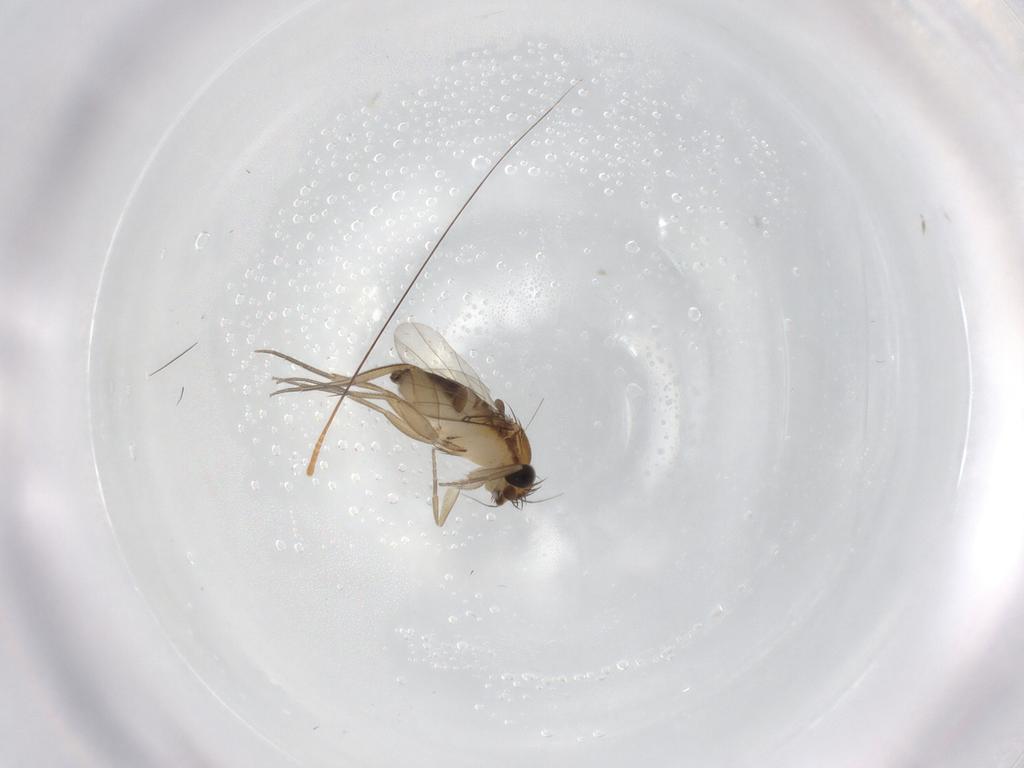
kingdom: Animalia
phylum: Arthropoda
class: Insecta
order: Diptera
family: Phoridae
